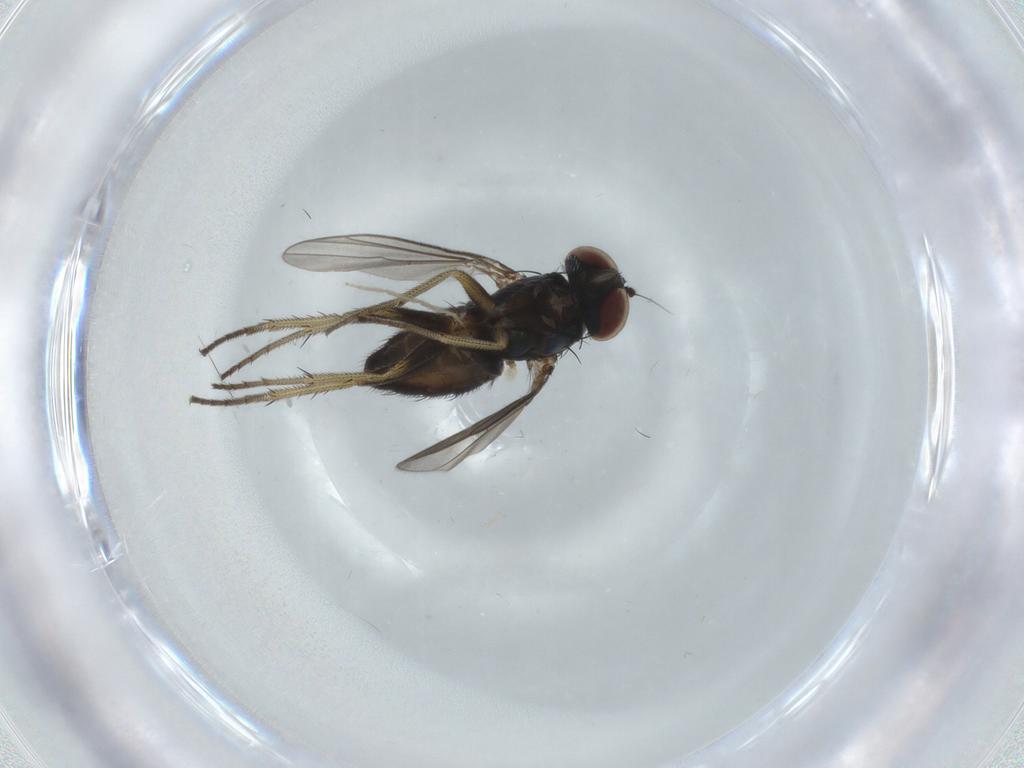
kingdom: Animalia
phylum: Arthropoda
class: Insecta
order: Diptera
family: Chironomidae
